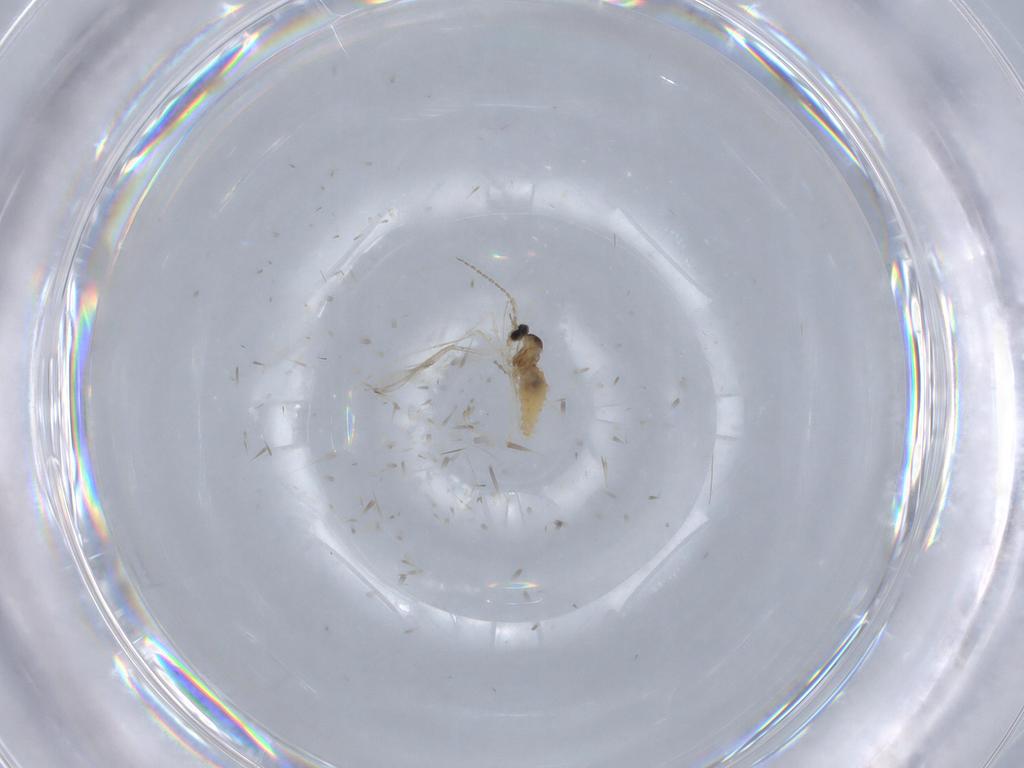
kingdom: Animalia
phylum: Arthropoda
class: Insecta
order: Diptera
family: Cecidomyiidae
